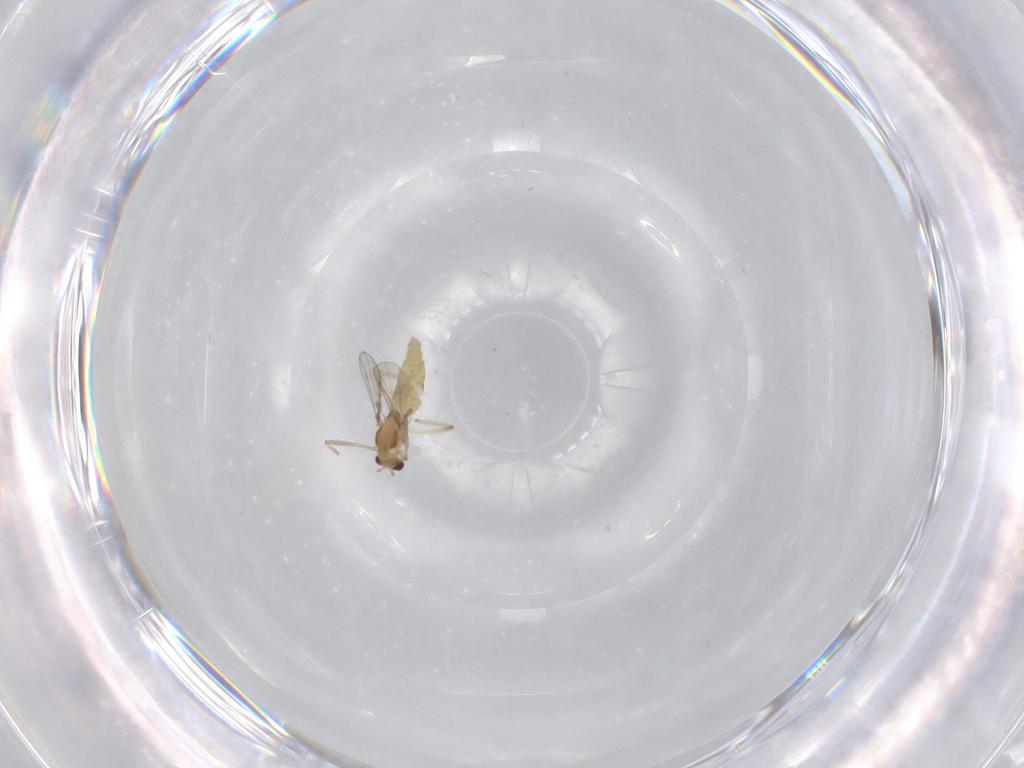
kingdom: Animalia
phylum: Arthropoda
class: Insecta
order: Diptera
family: Chironomidae
